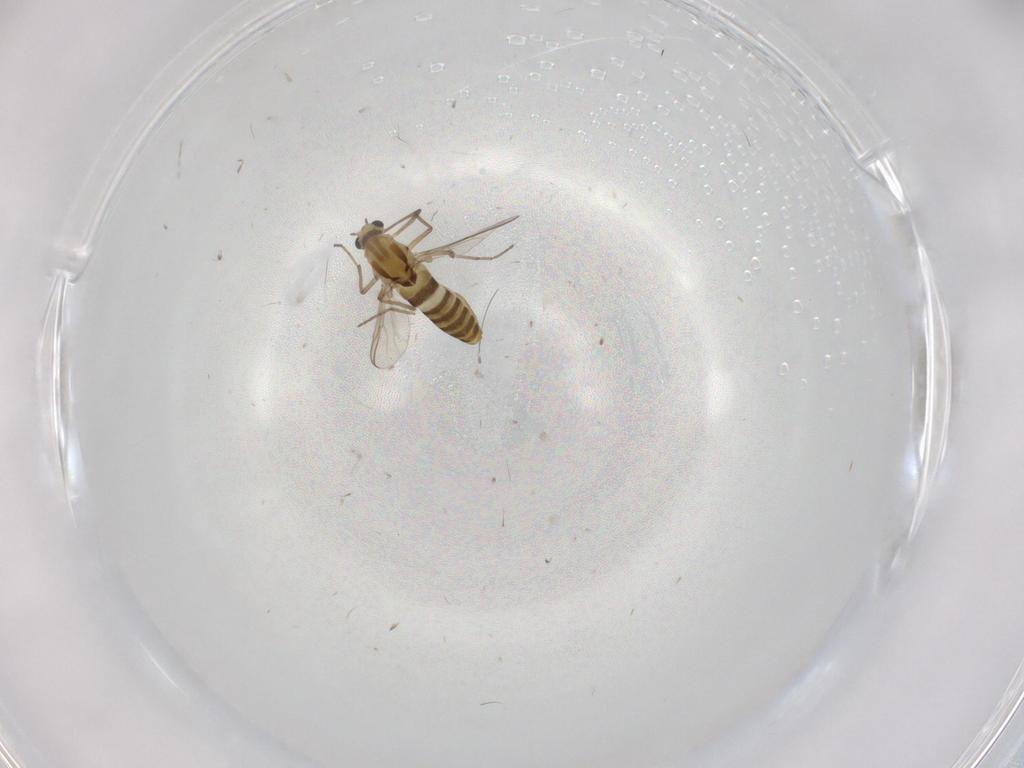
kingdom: Animalia
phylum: Arthropoda
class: Insecta
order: Diptera
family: Chironomidae
